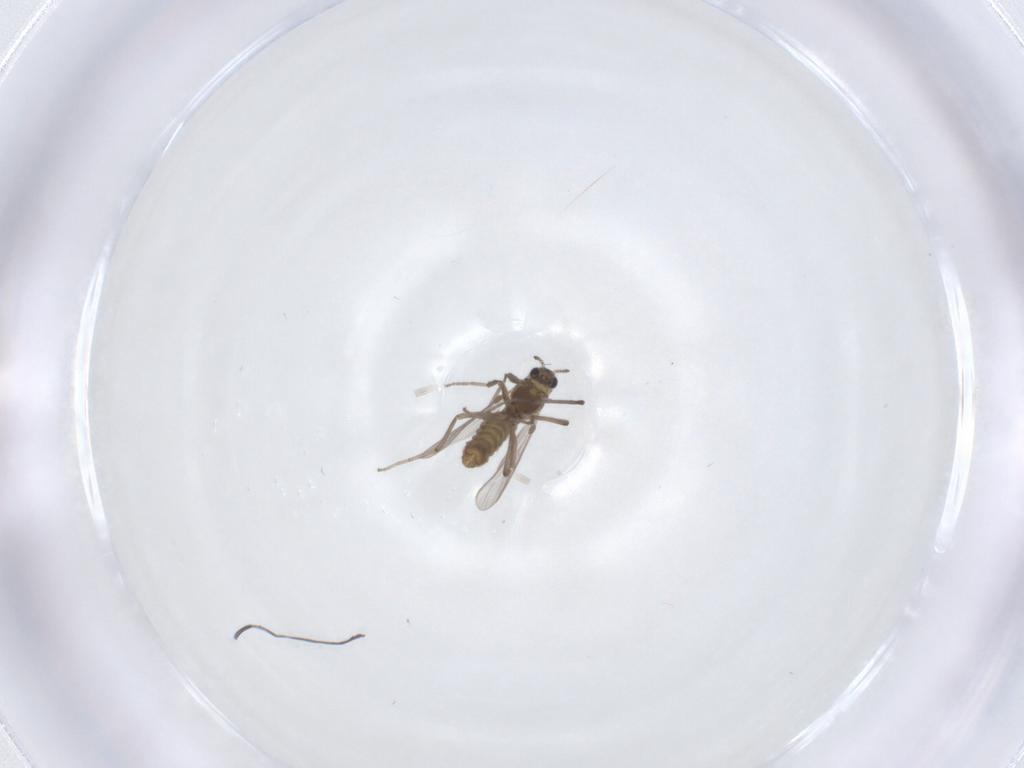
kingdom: Animalia
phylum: Arthropoda
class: Insecta
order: Diptera
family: Chironomidae
